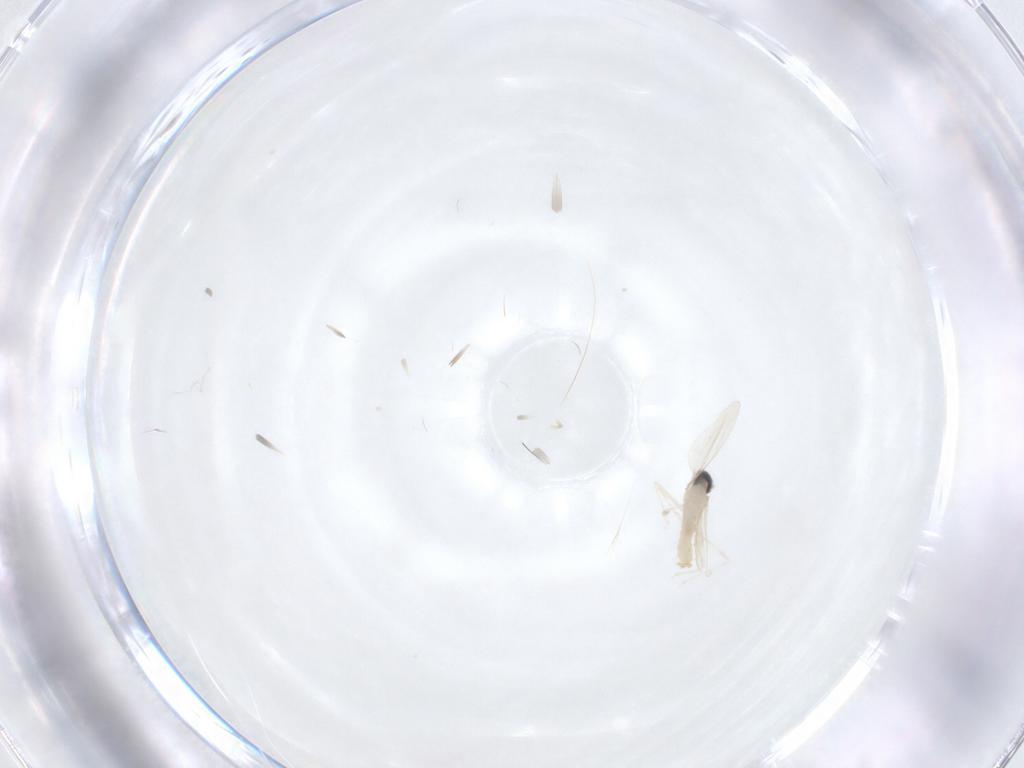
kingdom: Animalia
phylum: Arthropoda
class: Insecta
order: Diptera
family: Cecidomyiidae
